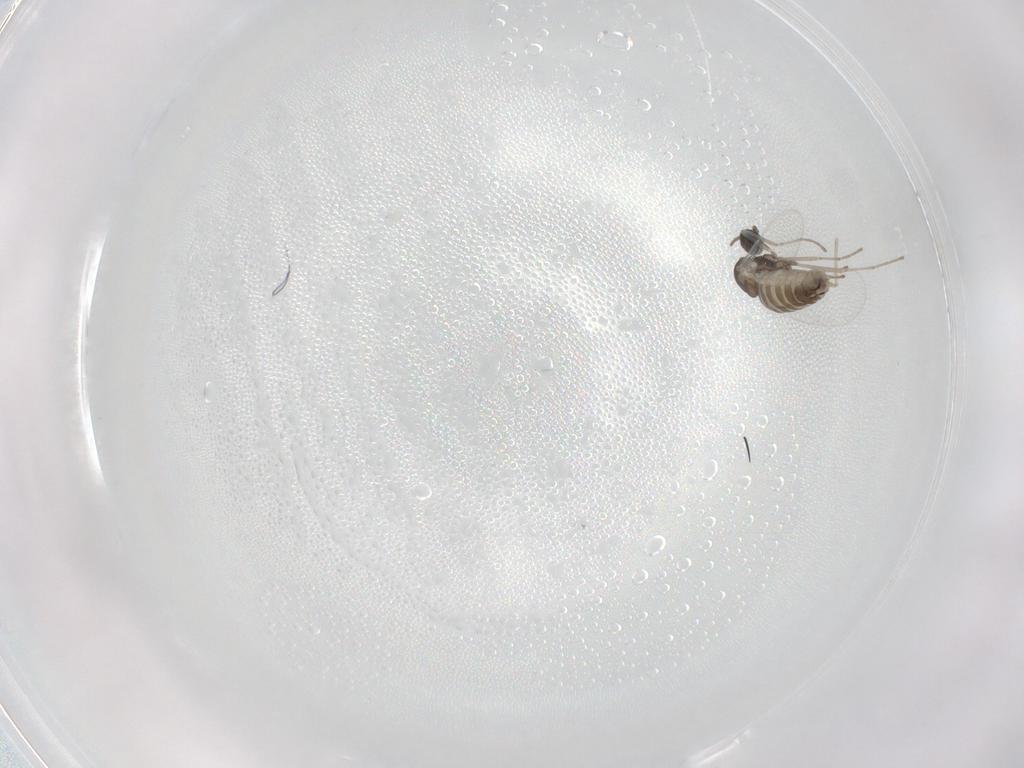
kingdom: Animalia
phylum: Arthropoda
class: Insecta
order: Diptera
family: Cecidomyiidae
